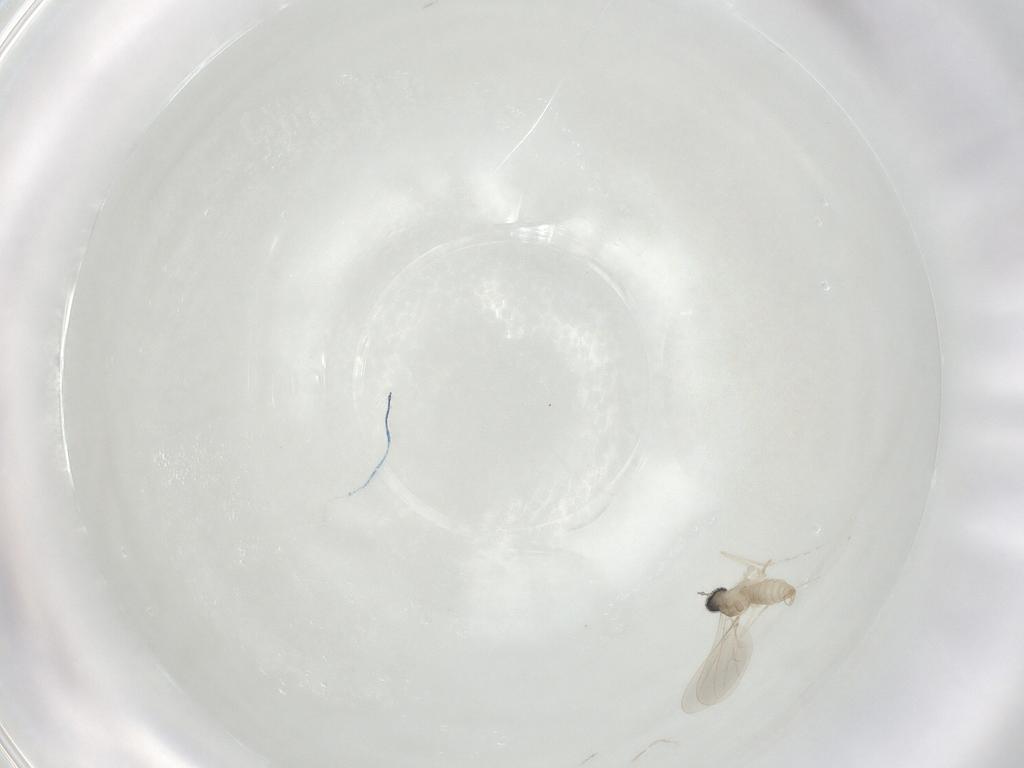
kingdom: Animalia
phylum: Arthropoda
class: Insecta
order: Diptera
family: Cecidomyiidae
